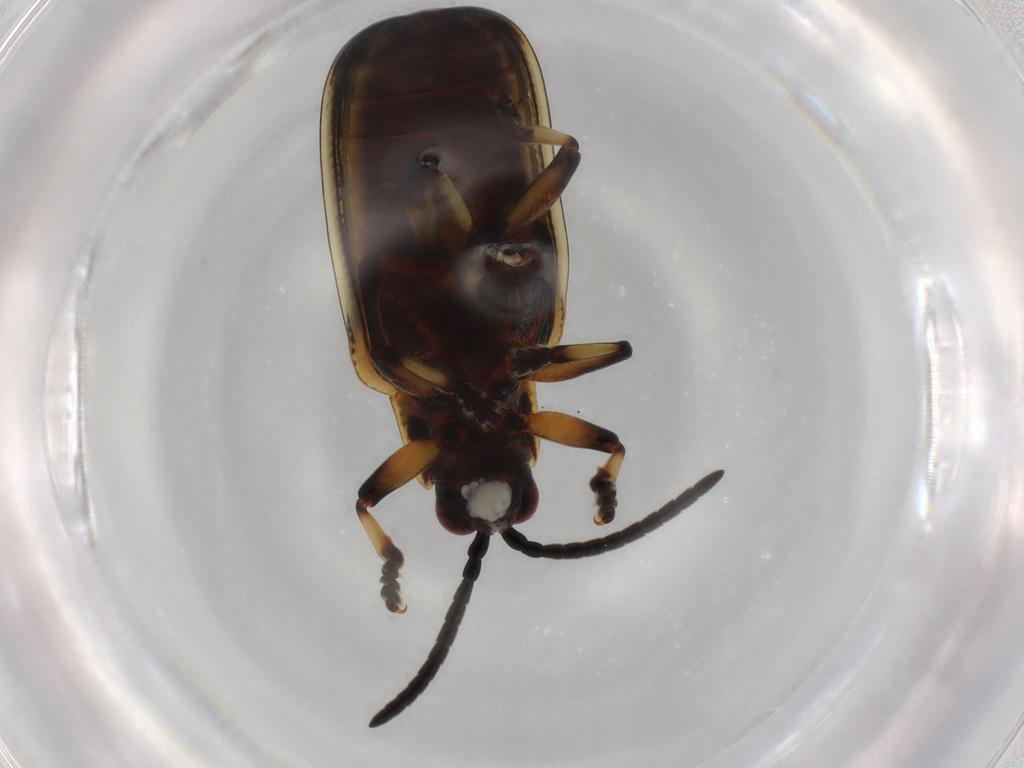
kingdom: Animalia
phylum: Arthropoda
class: Insecta
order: Coleoptera
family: Chrysomelidae
